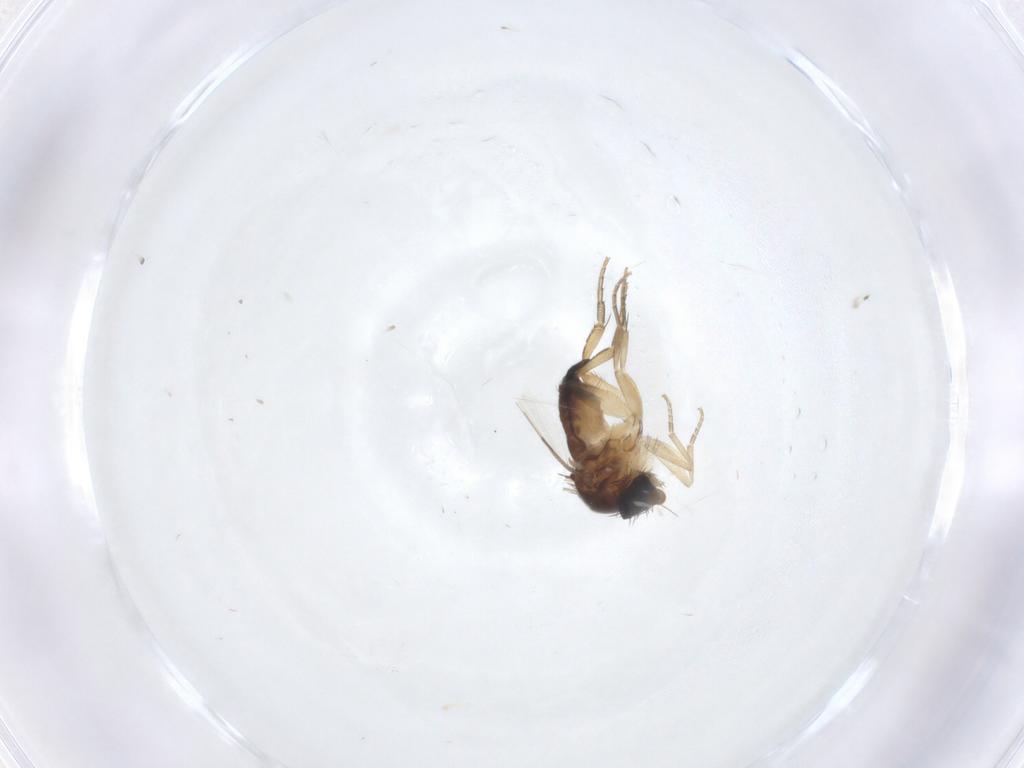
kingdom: Animalia
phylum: Arthropoda
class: Insecta
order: Diptera
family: Phoridae
